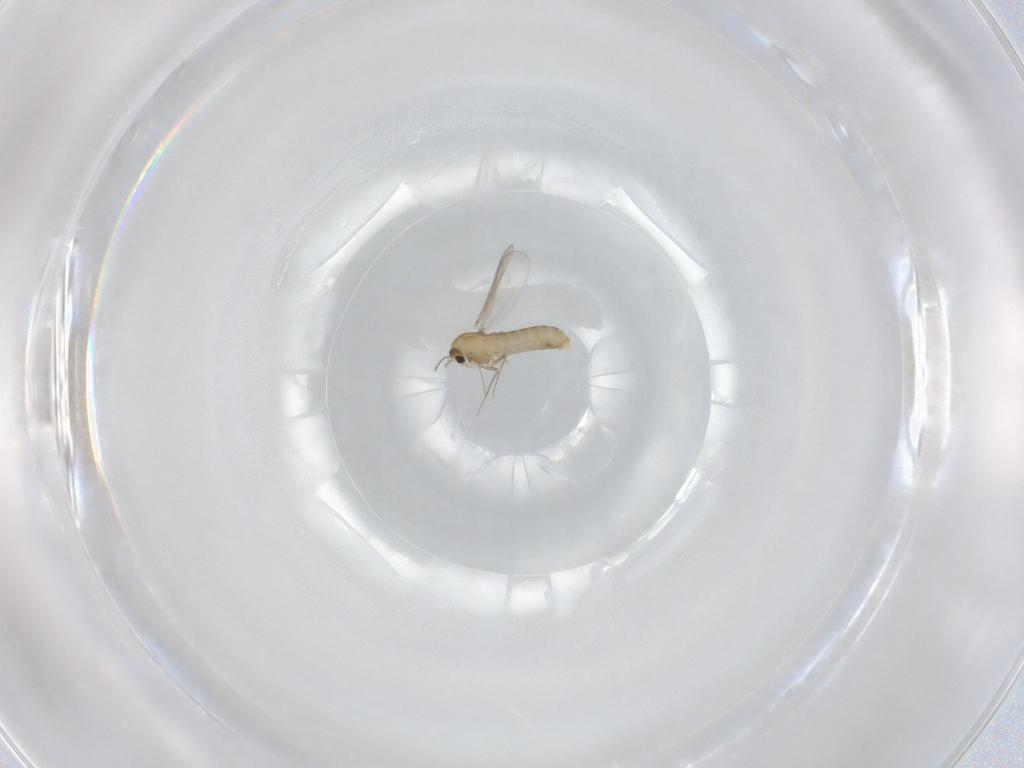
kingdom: Animalia
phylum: Arthropoda
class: Insecta
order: Diptera
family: Chironomidae
